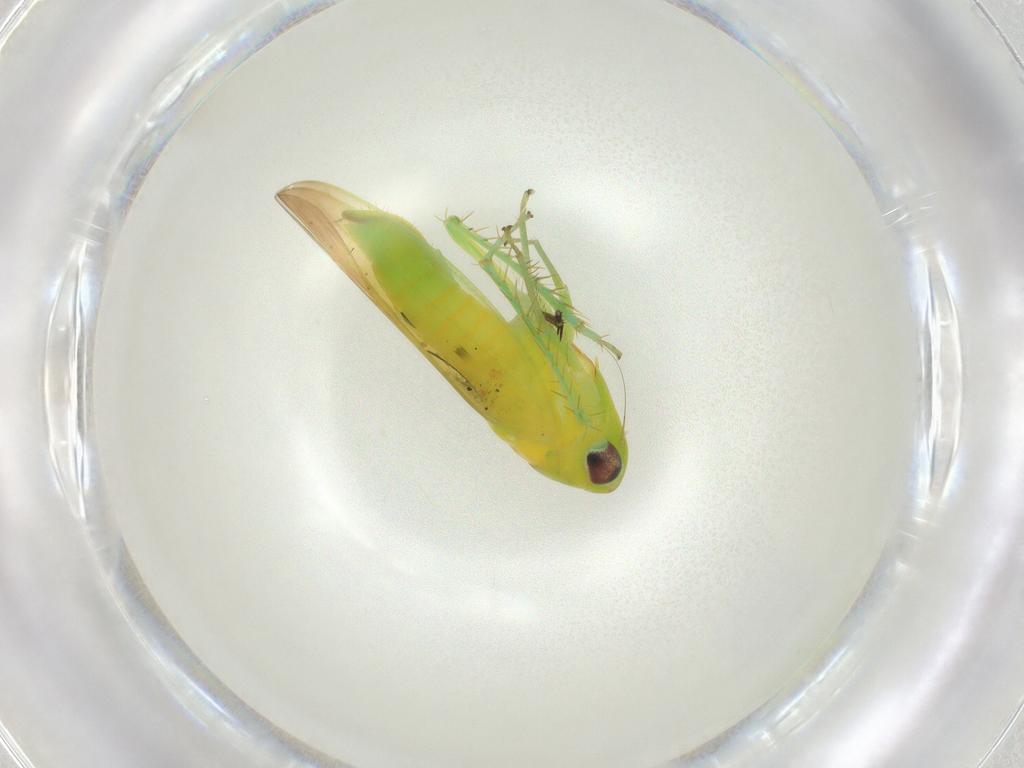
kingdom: Animalia
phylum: Arthropoda
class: Insecta
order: Hemiptera
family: Cicadellidae
